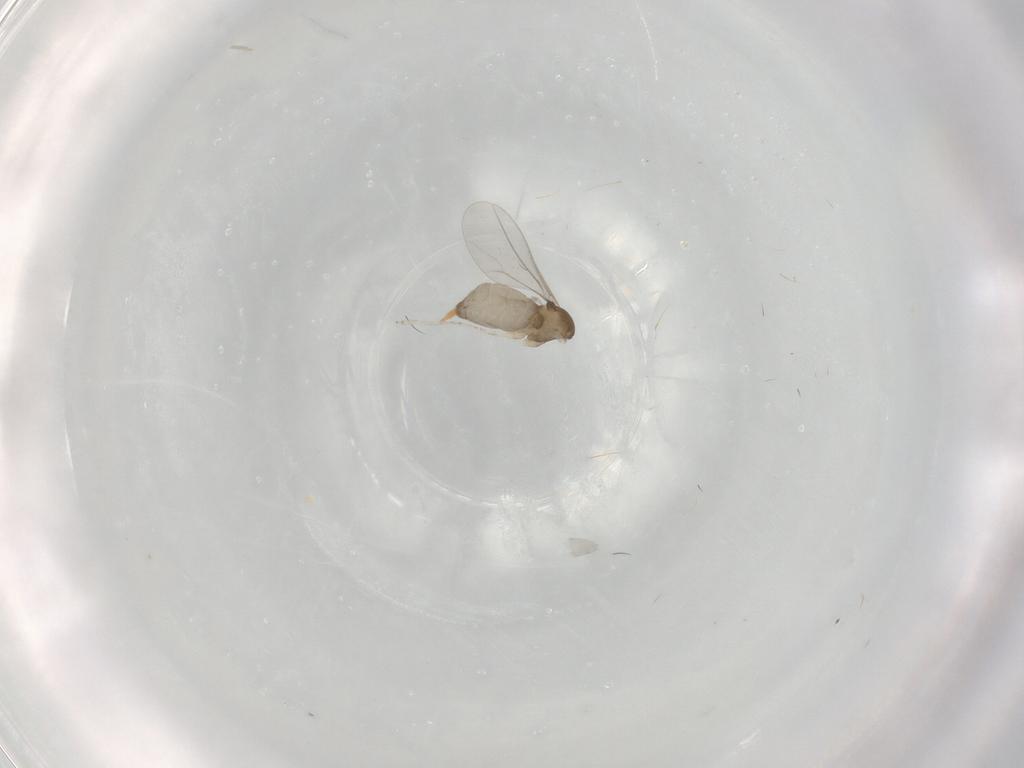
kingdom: Animalia
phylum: Arthropoda
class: Insecta
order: Diptera
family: Cecidomyiidae
